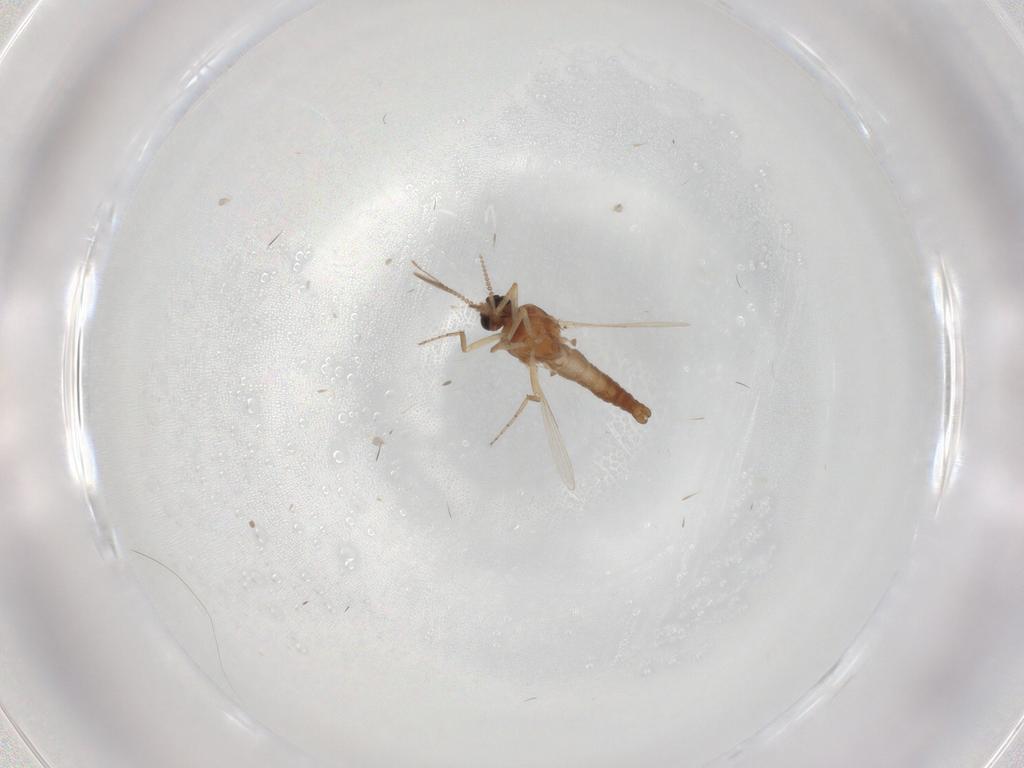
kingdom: Animalia
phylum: Arthropoda
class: Insecta
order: Diptera
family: Ceratopogonidae
